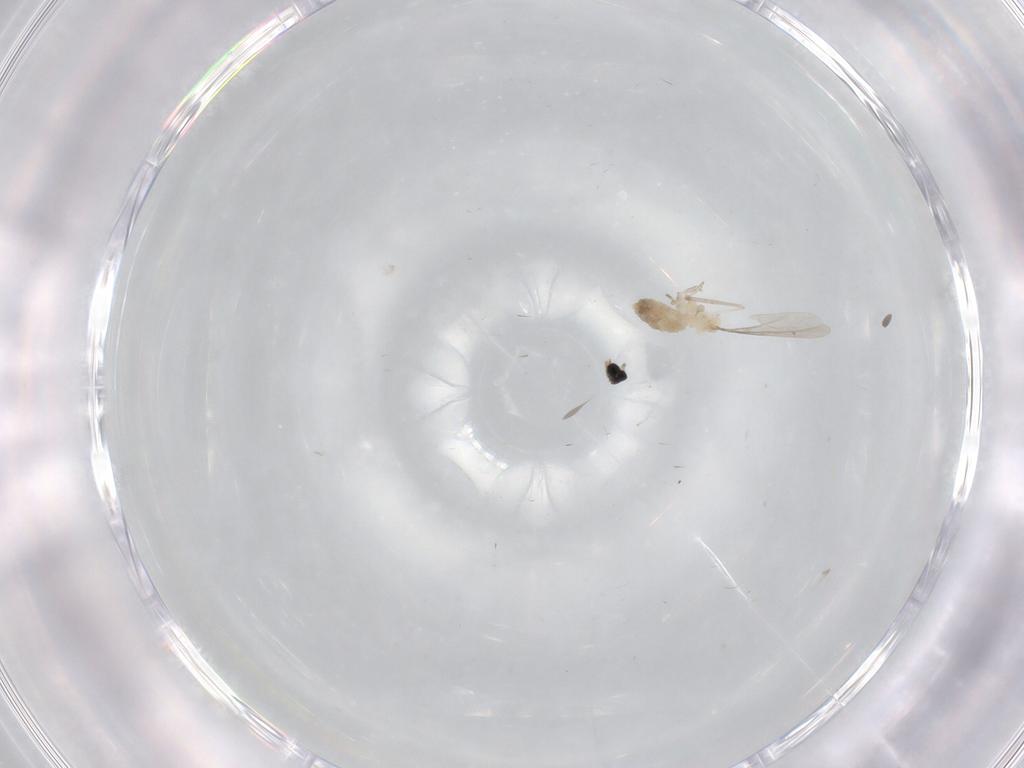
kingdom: Animalia
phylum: Arthropoda
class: Insecta
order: Diptera
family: Cecidomyiidae
